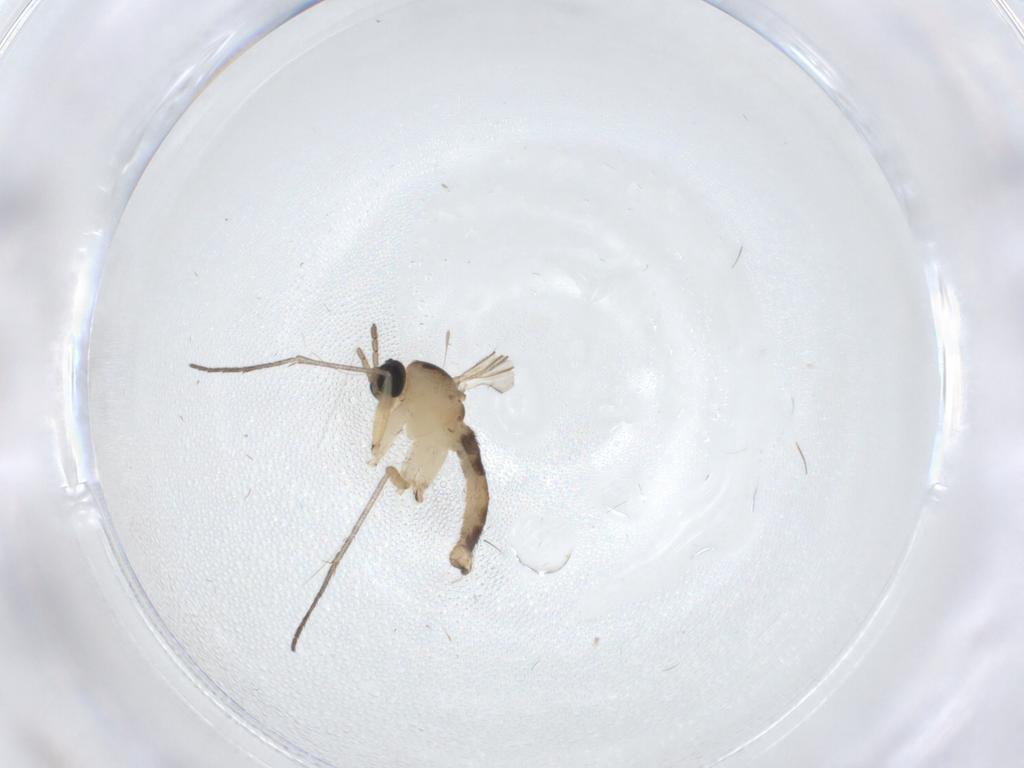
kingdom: Animalia
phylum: Arthropoda
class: Insecta
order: Diptera
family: Sciaridae
